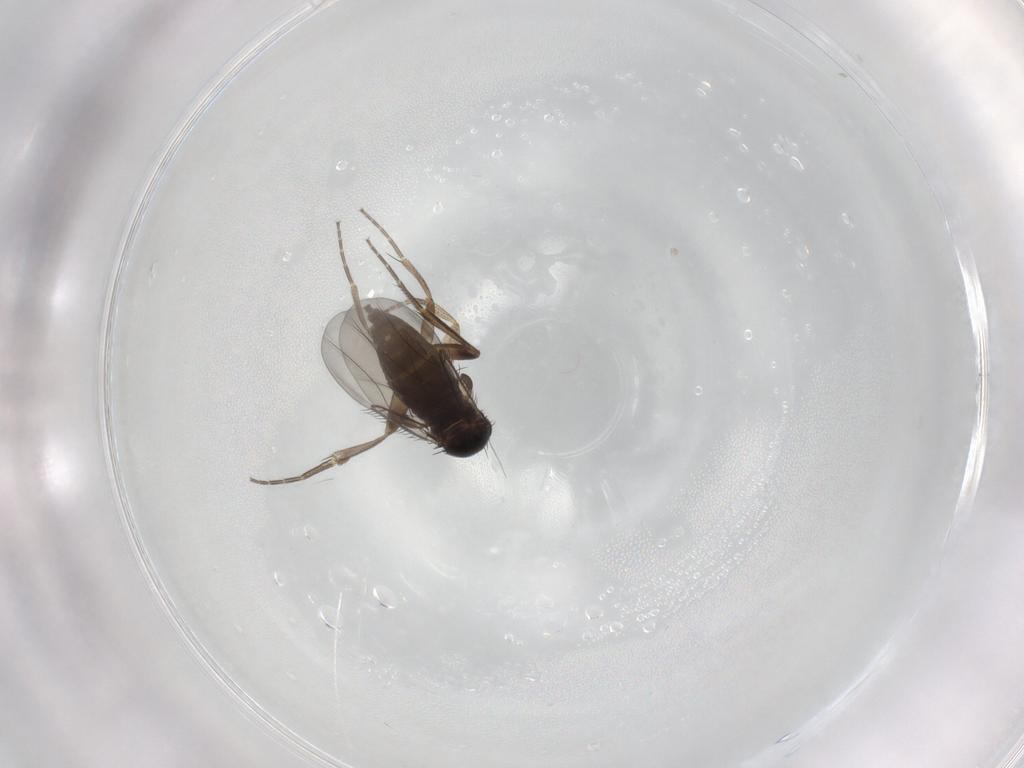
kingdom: Animalia
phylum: Arthropoda
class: Insecta
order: Diptera
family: Phoridae
